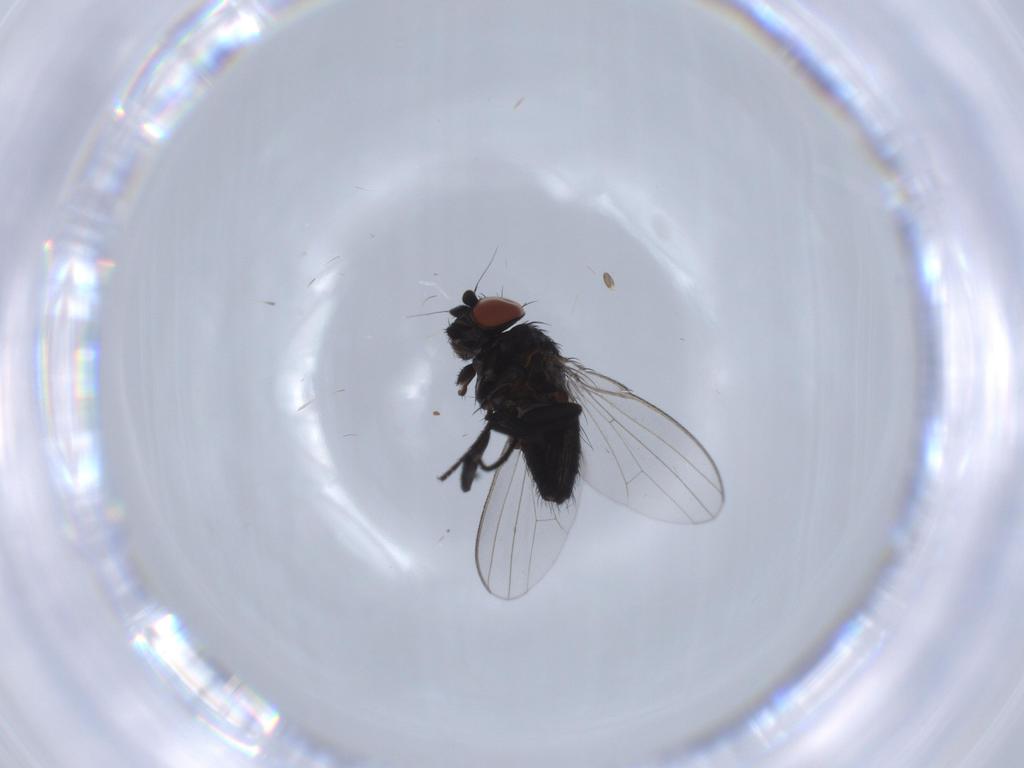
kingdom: Animalia
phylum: Arthropoda
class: Insecta
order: Diptera
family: Milichiidae
